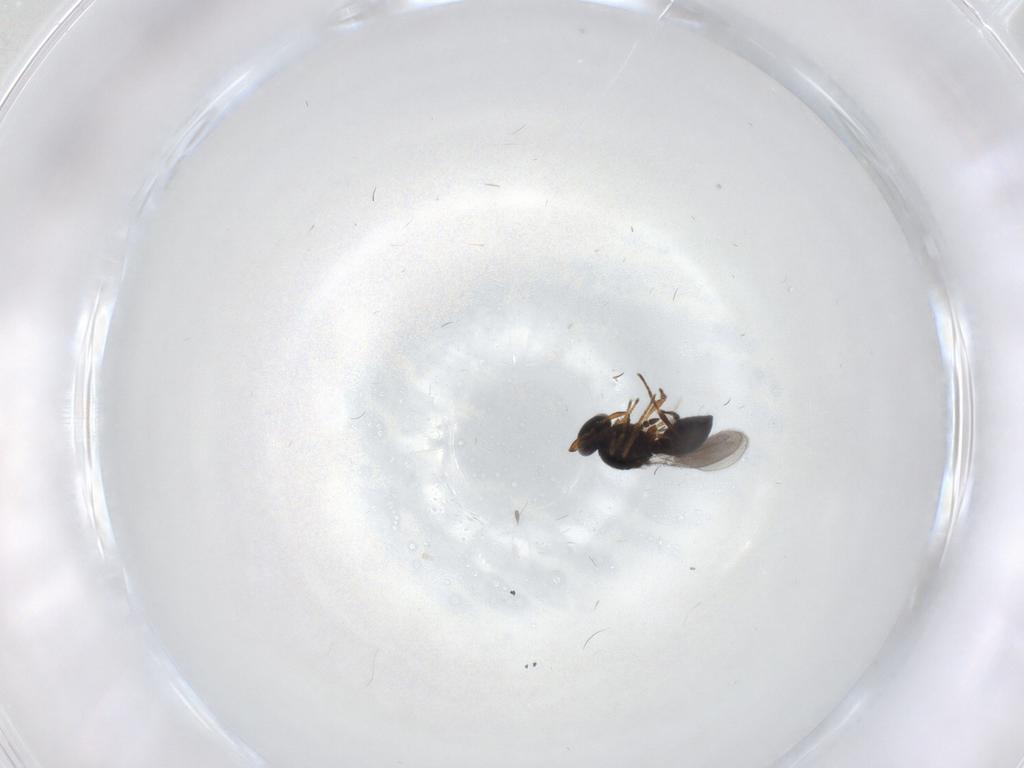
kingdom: Animalia
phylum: Arthropoda
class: Insecta
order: Hymenoptera
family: Platygastridae
